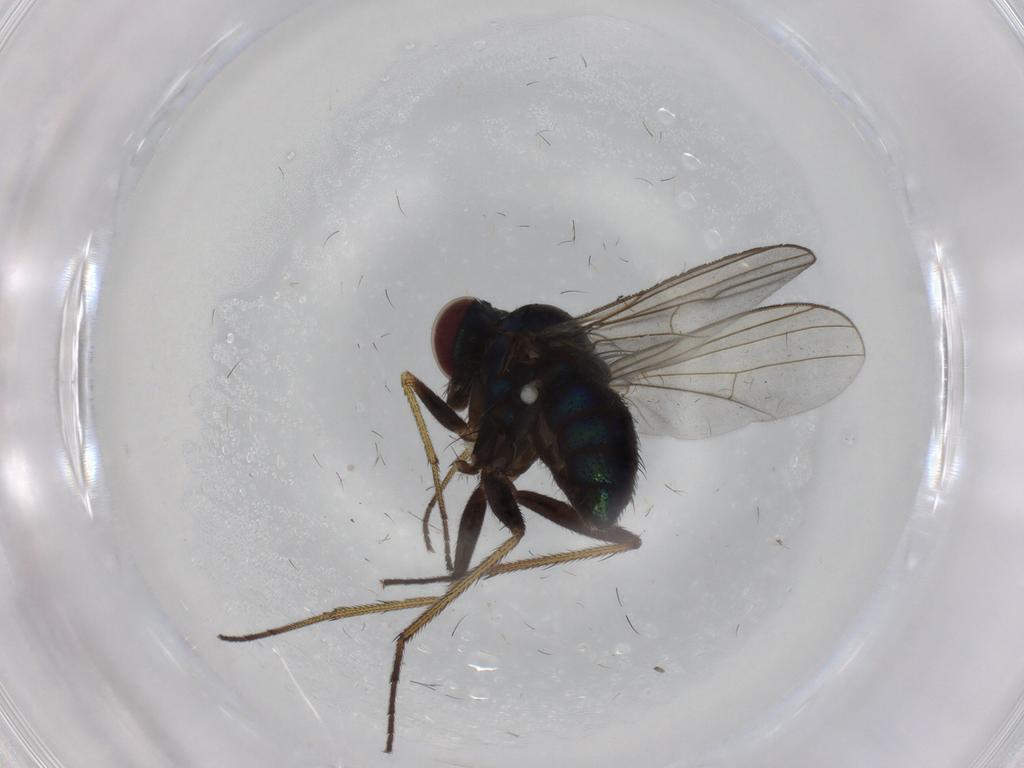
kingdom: Animalia
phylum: Arthropoda
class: Insecta
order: Diptera
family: Dolichopodidae
